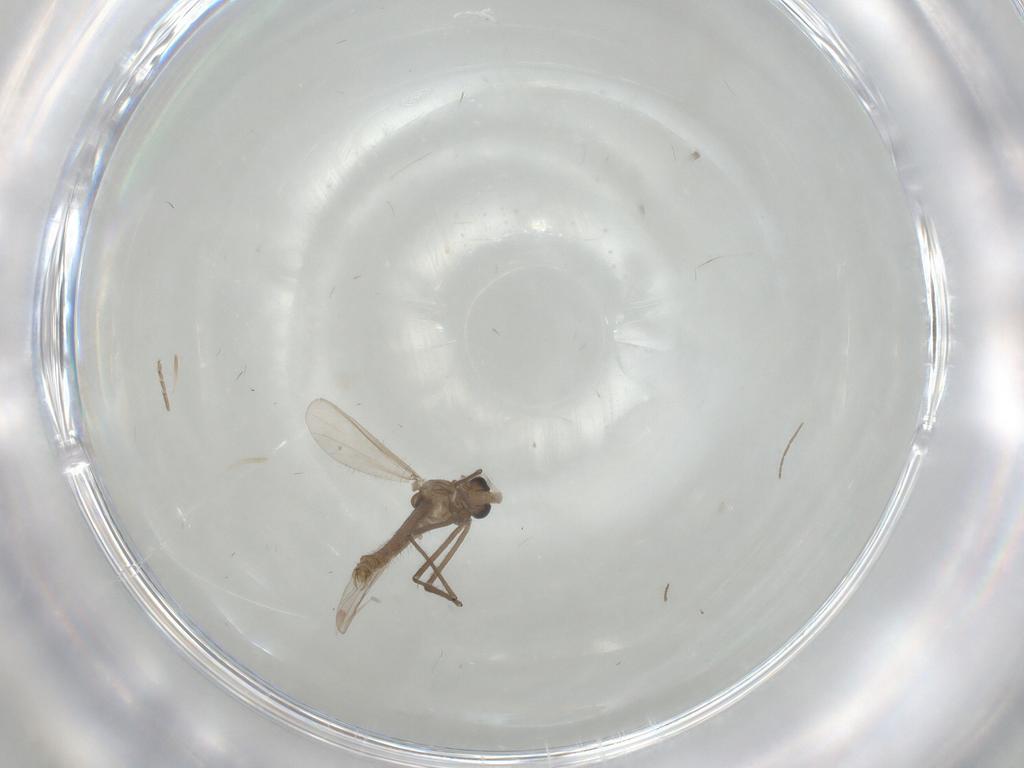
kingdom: Animalia
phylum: Arthropoda
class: Insecta
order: Diptera
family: Chironomidae
